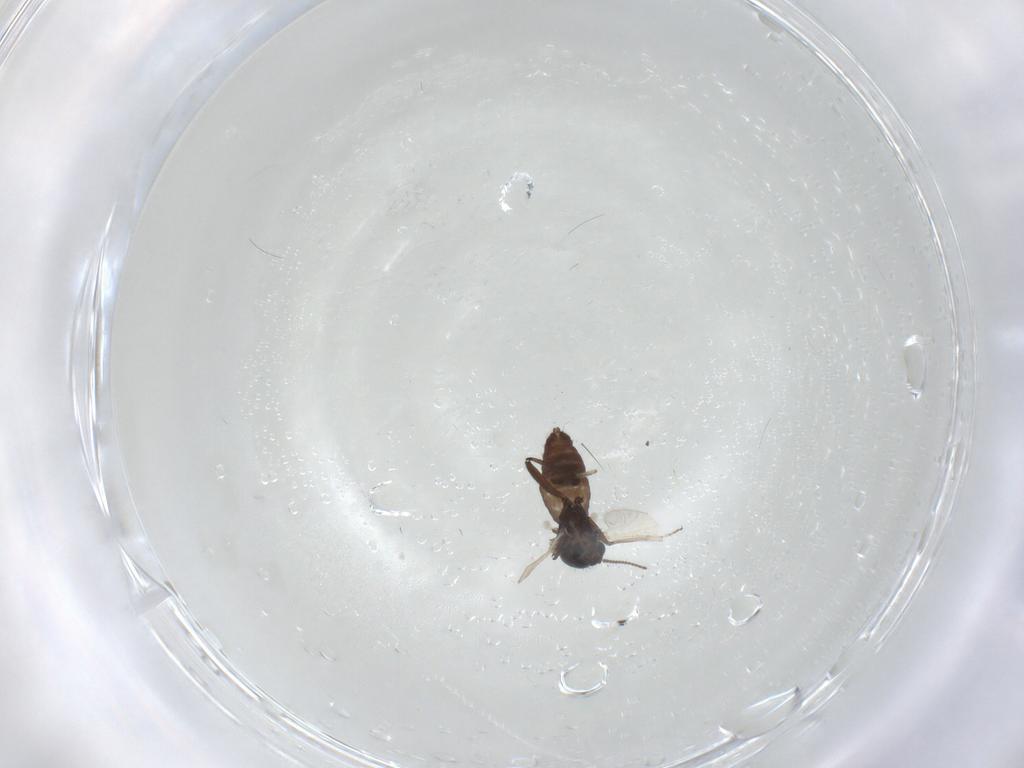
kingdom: Animalia
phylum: Arthropoda
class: Insecta
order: Diptera
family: Ceratopogonidae
